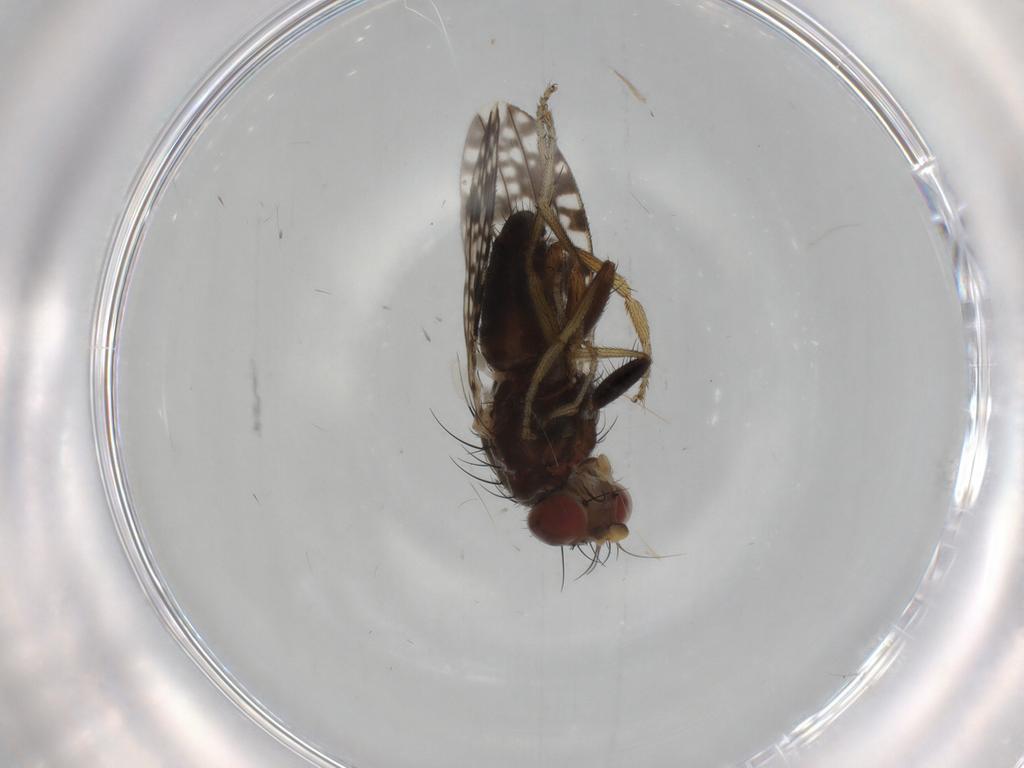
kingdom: Animalia
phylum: Arthropoda
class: Insecta
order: Diptera
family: Tephritidae
